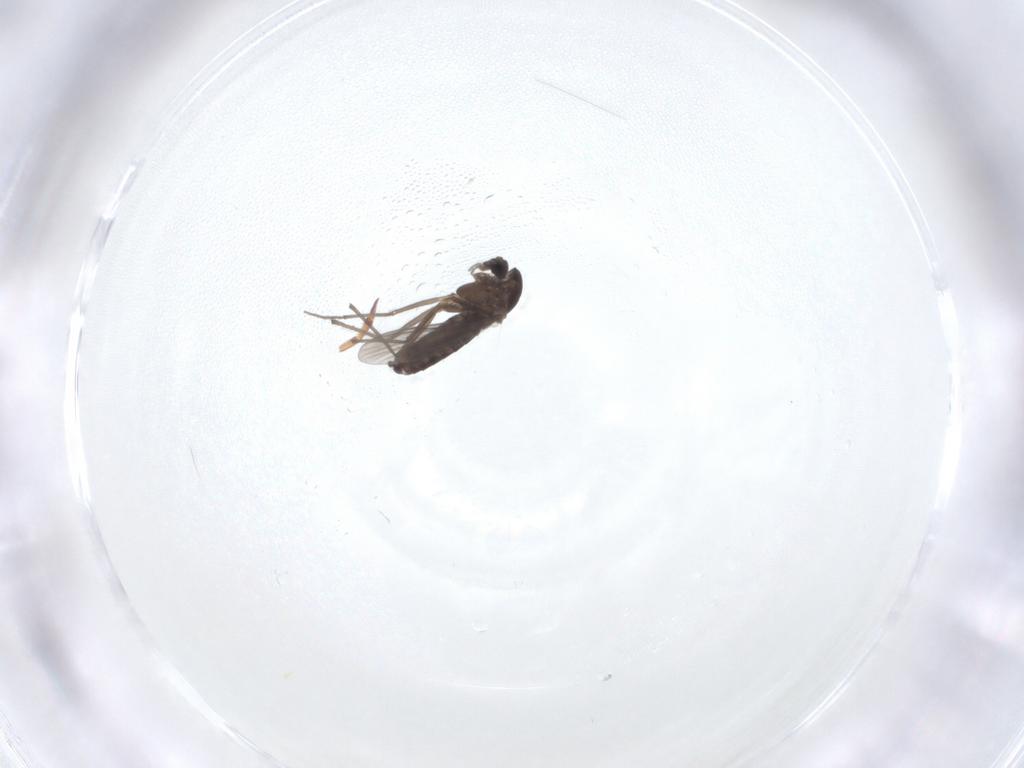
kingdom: Animalia
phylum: Arthropoda
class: Insecta
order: Diptera
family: Chironomidae
